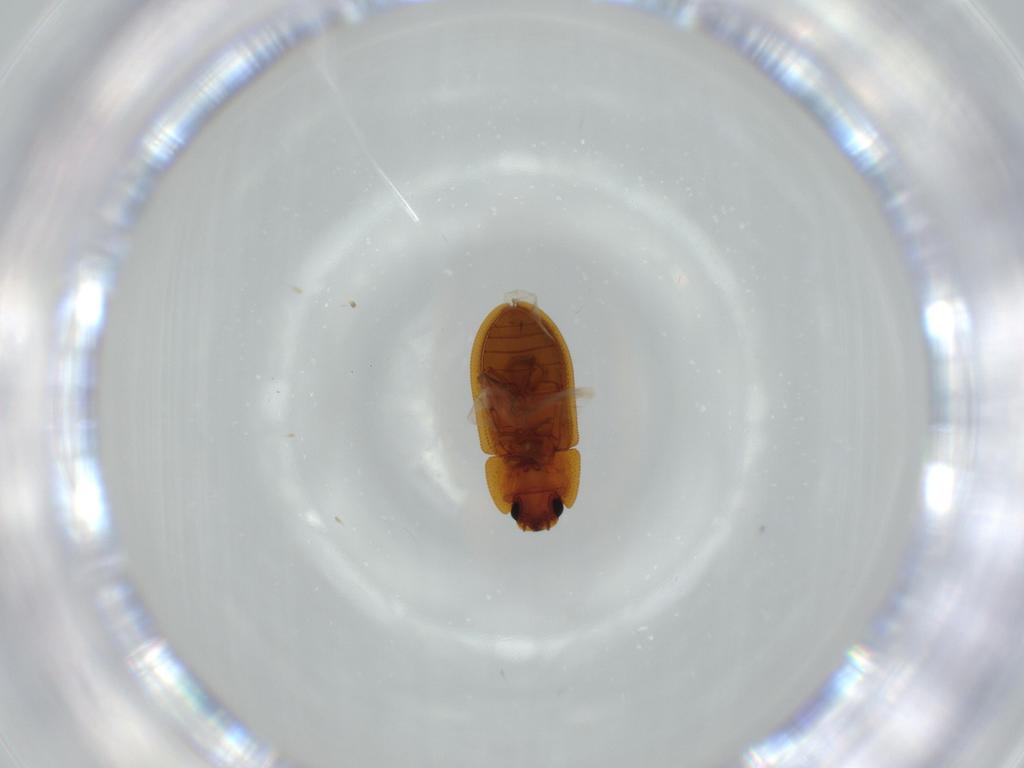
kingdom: Animalia
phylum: Arthropoda
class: Insecta
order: Coleoptera
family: Zopheridae
